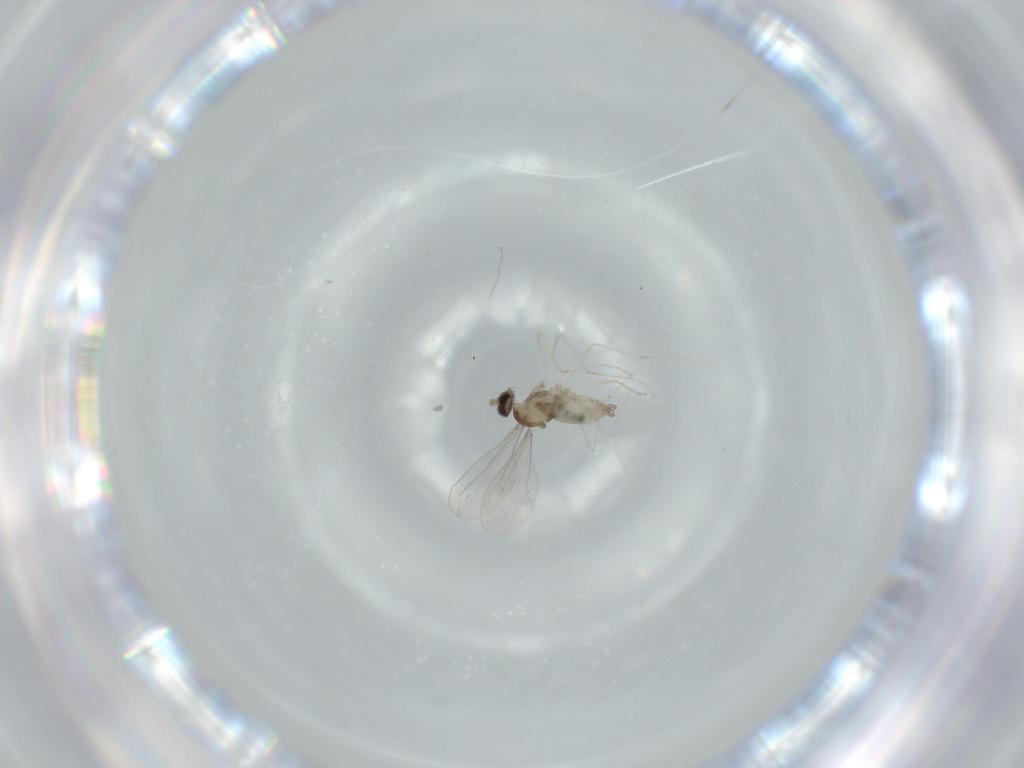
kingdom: Animalia
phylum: Arthropoda
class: Insecta
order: Diptera
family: Cecidomyiidae
